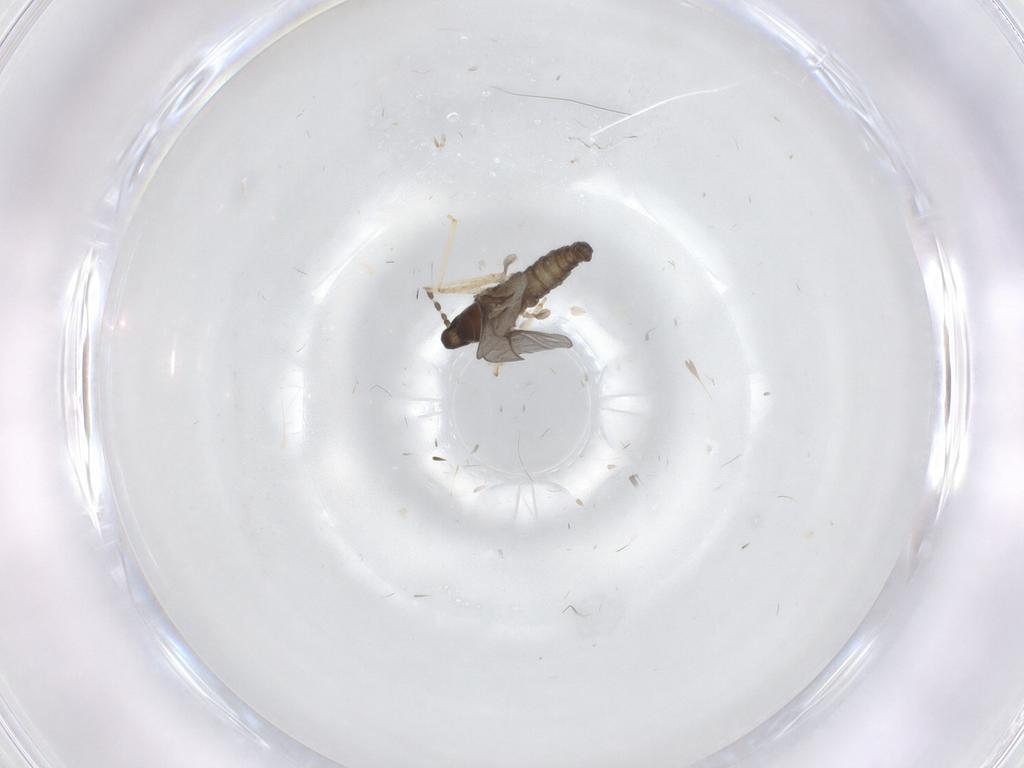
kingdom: Animalia
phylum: Arthropoda
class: Insecta
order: Diptera
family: Cecidomyiidae
